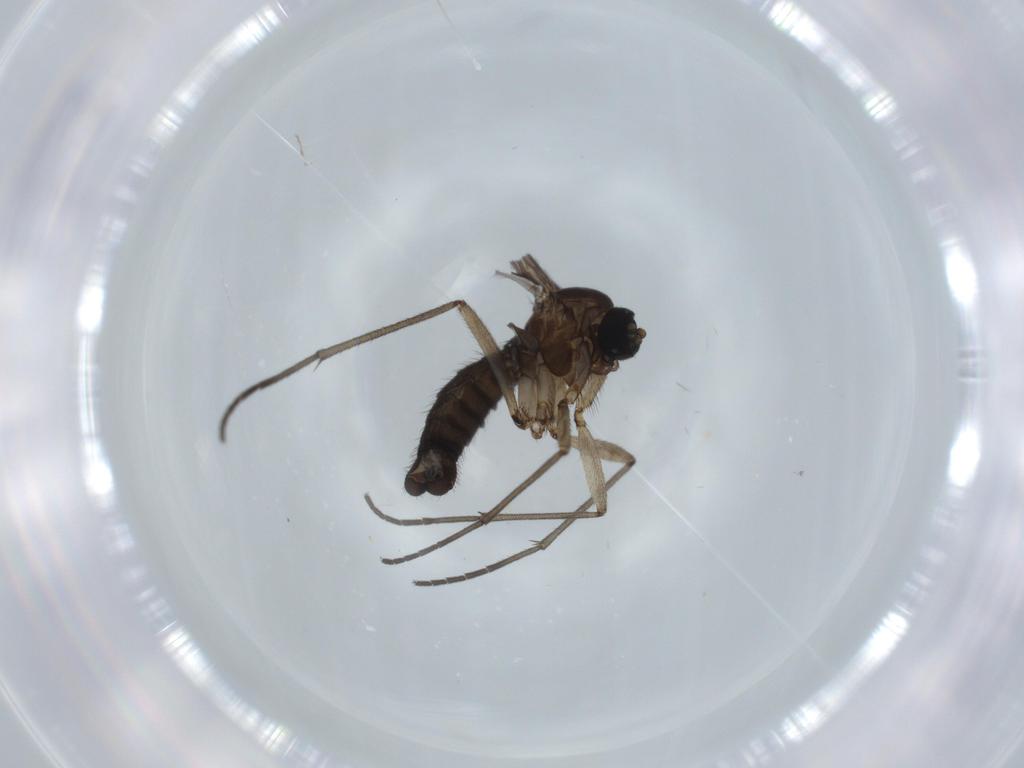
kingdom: Animalia
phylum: Arthropoda
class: Insecta
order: Diptera
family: Sciaridae
